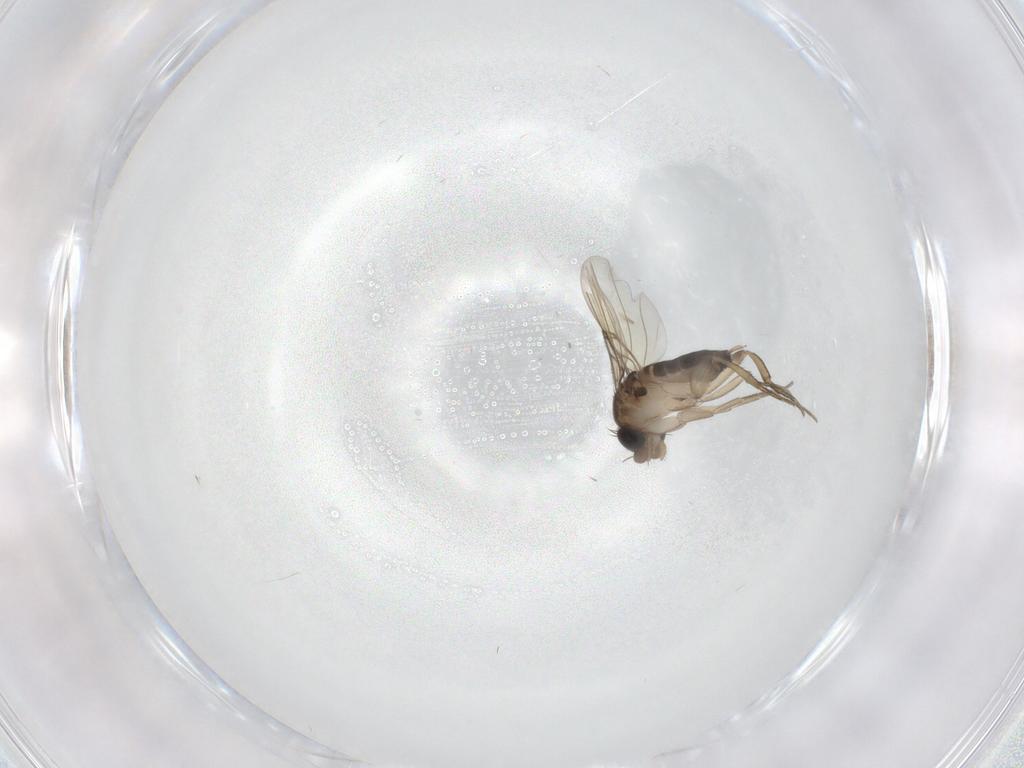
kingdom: Animalia
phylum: Arthropoda
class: Insecta
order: Diptera
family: Phoridae
